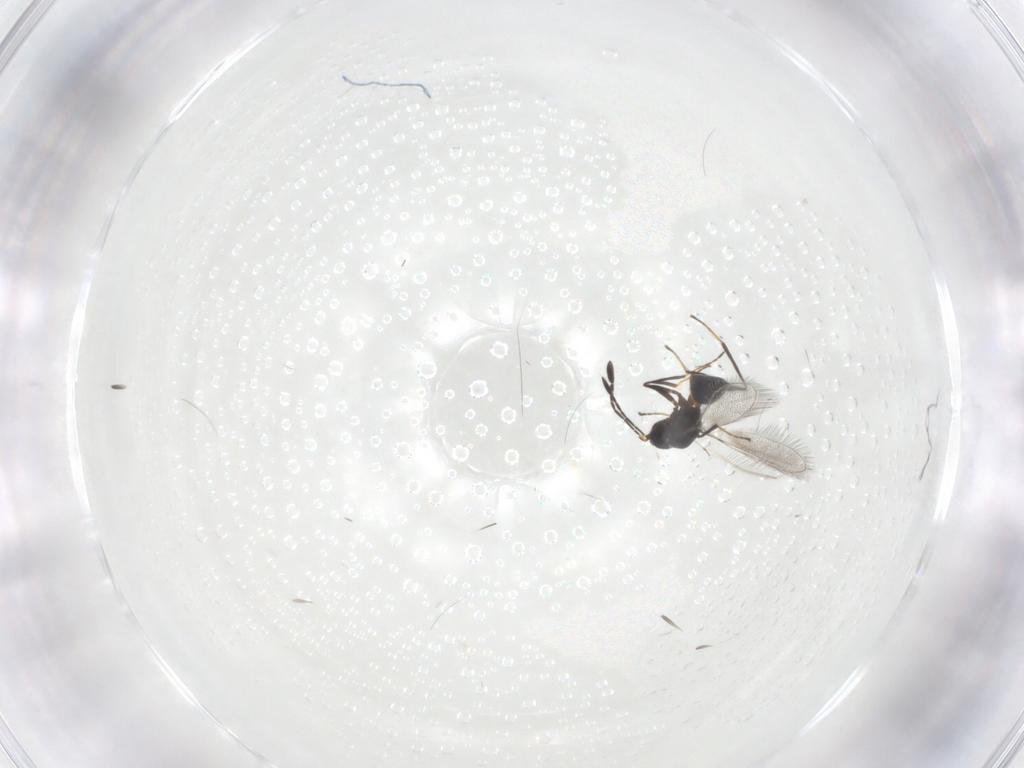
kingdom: Animalia
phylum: Arthropoda
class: Insecta
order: Hymenoptera
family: Mymaridae
